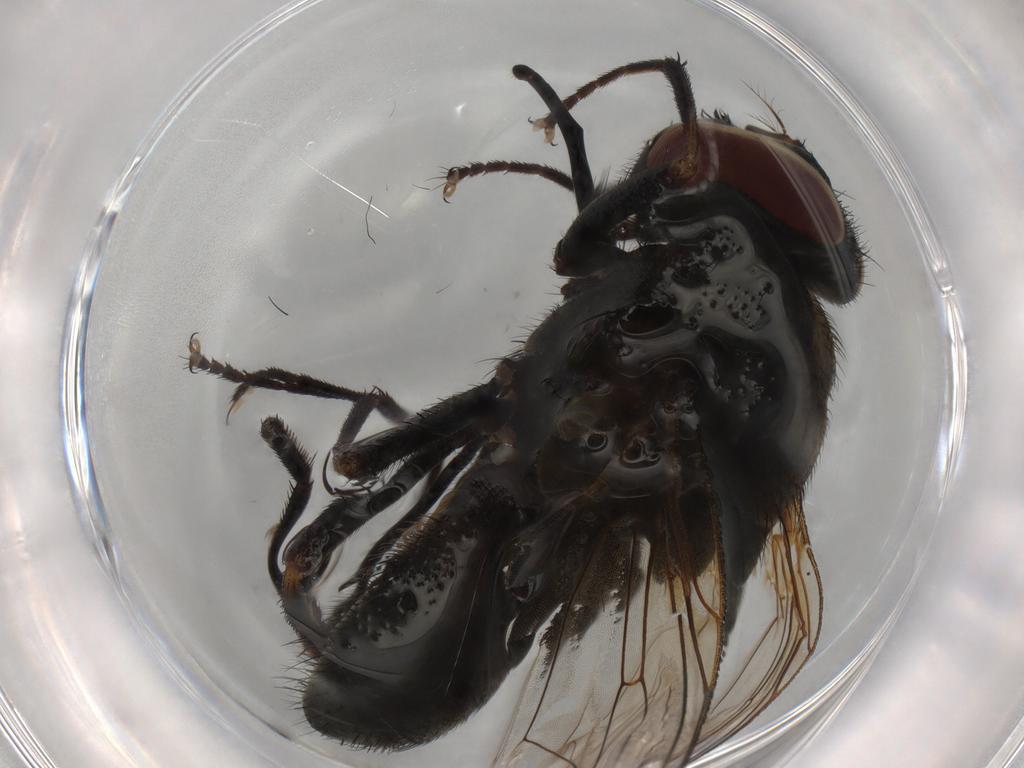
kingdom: Animalia
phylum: Arthropoda
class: Insecta
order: Diptera
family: Muscidae
